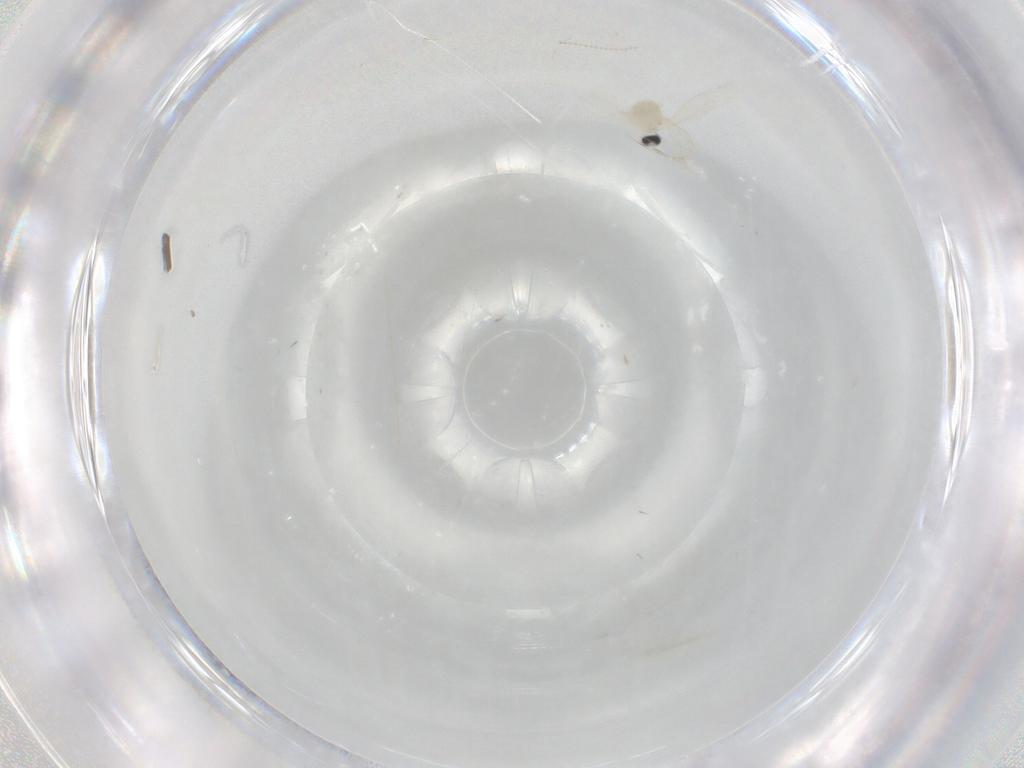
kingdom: Animalia
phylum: Arthropoda
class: Insecta
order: Diptera
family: Cecidomyiidae
